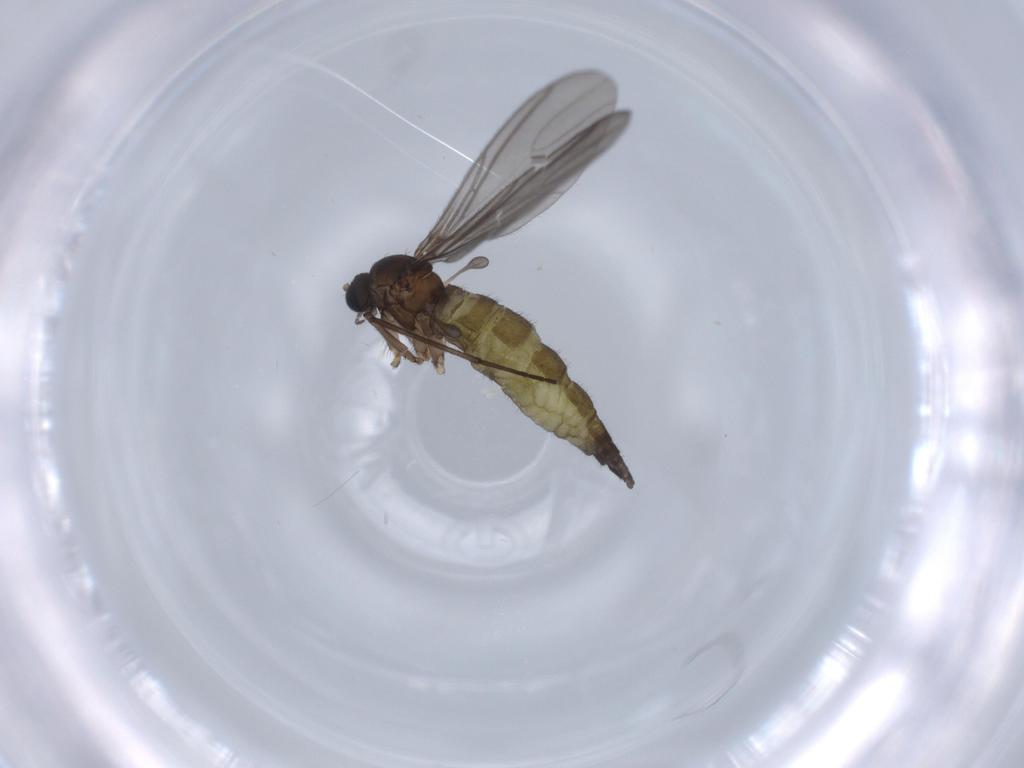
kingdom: Animalia
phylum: Arthropoda
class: Insecta
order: Diptera
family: Sciaridae
